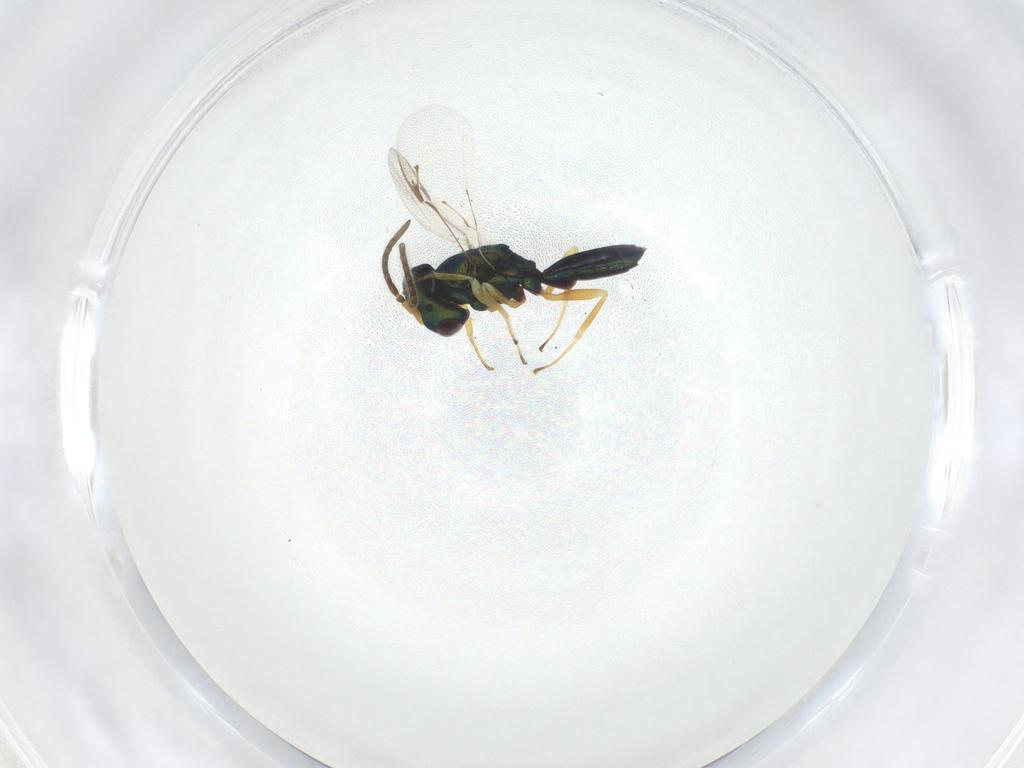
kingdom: Animalia
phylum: Arthropoda
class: Insecta
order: Hymenoptera
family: Pteromalidae
